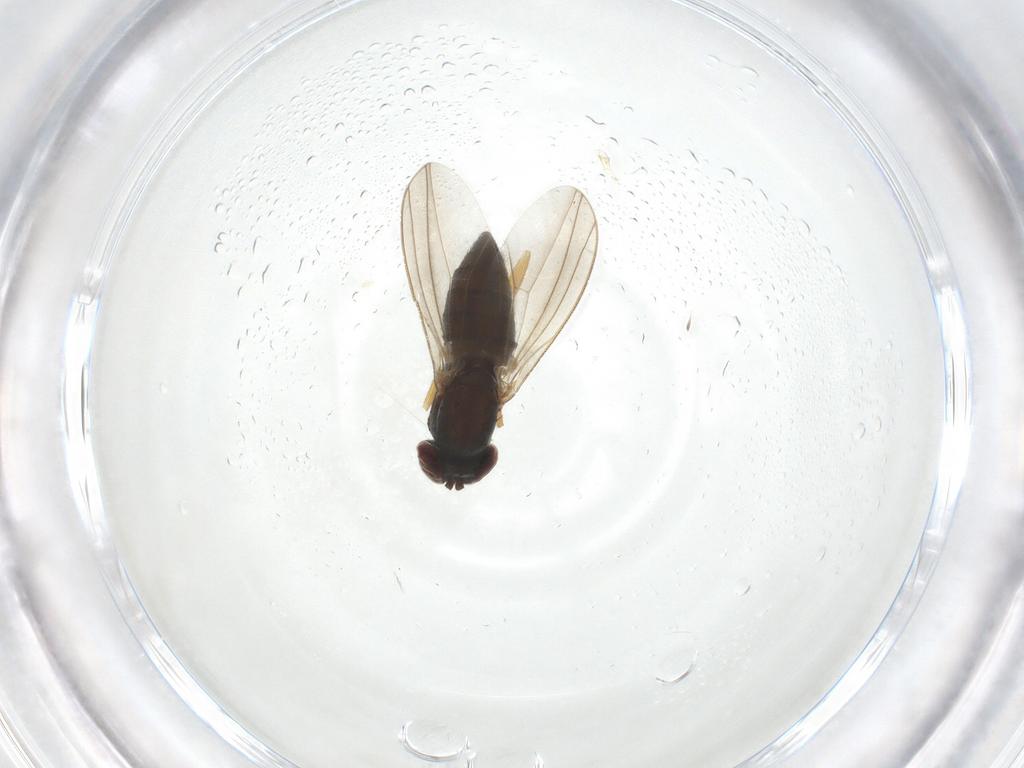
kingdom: Animalia
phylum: Arthropoda
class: Insecta
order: Diptera
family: Dolichopodidae
